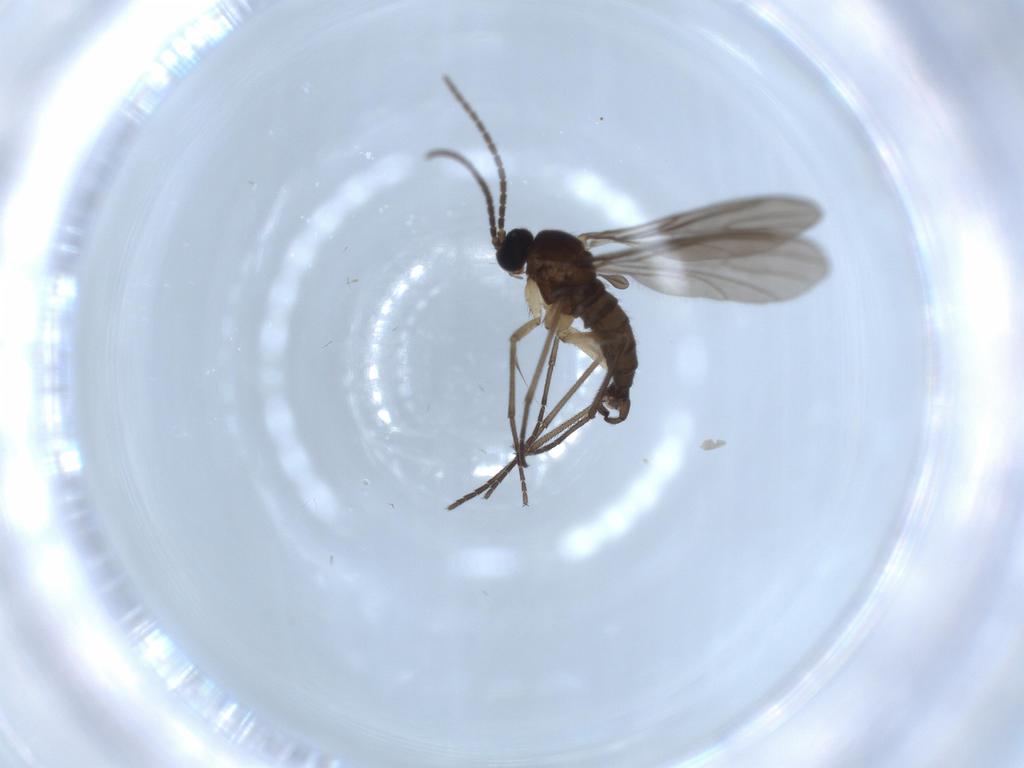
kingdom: Animalia
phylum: Arthropoda
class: Insecta
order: Diptera
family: Sciaridae
